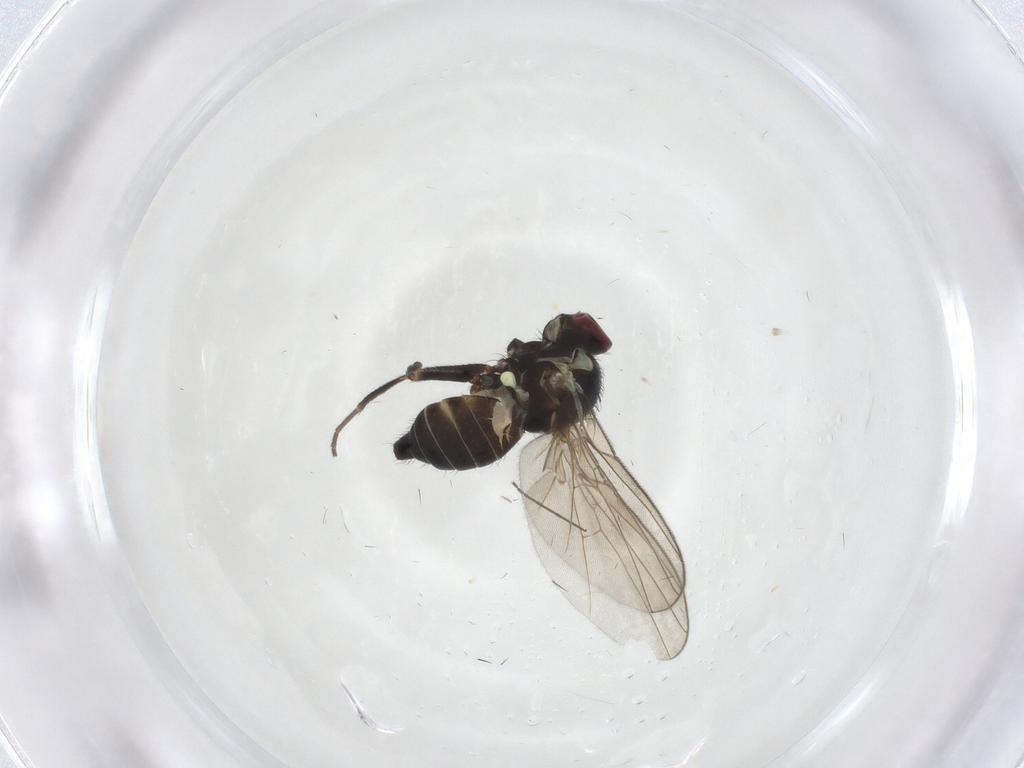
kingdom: Animalia
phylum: Arthropoda
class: Insecta
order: Diptera
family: Agromyzidae
